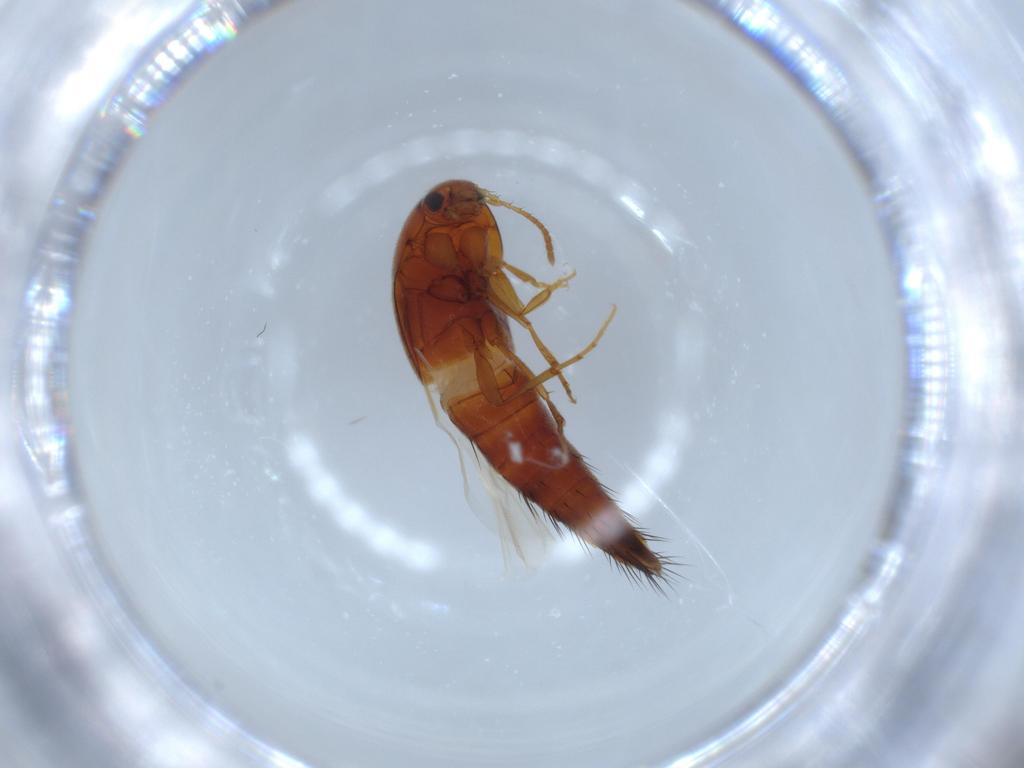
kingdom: Animalia
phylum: Arthropoda
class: Insecta
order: Coleoptera
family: Staphylinidae
